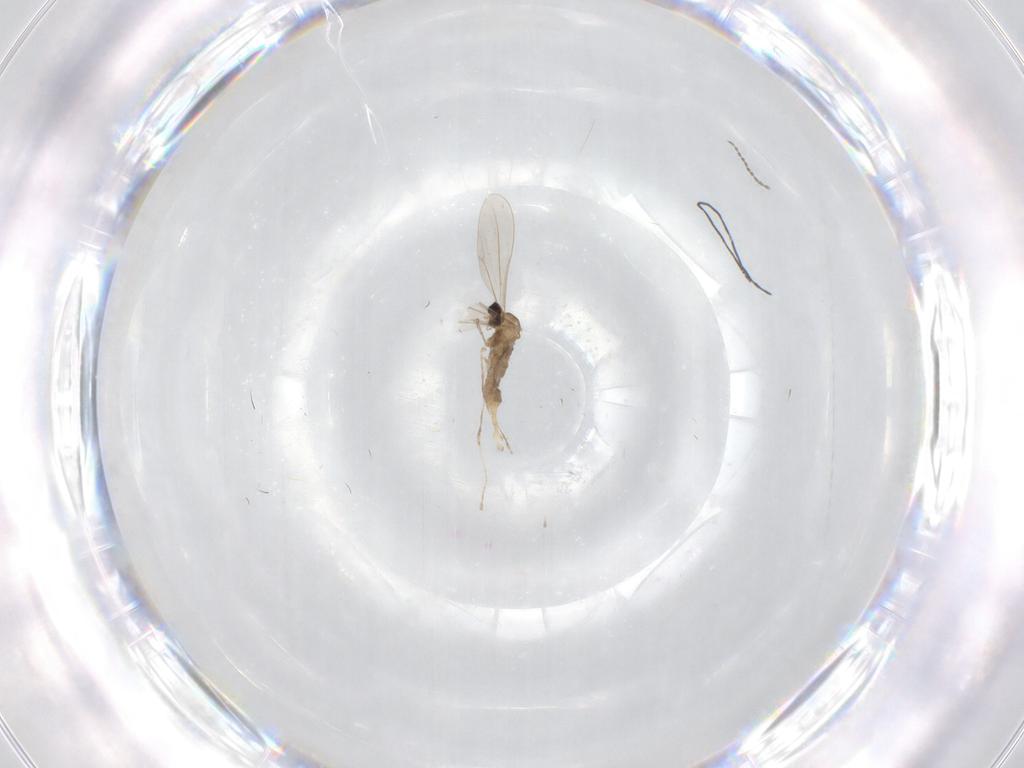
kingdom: Animalia
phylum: Arthropoda
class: Insecta
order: Diptera
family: Cecidomyiidae
